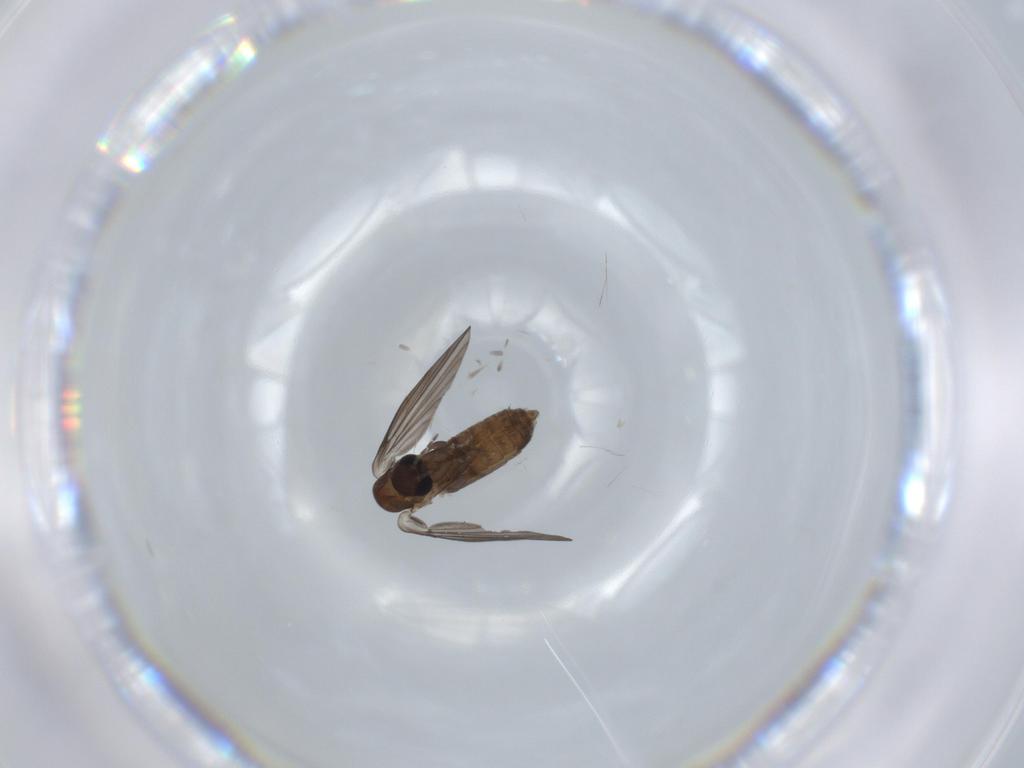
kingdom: Animalia
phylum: Arthropoda
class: Insecta
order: Diptera
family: Psychodidae
